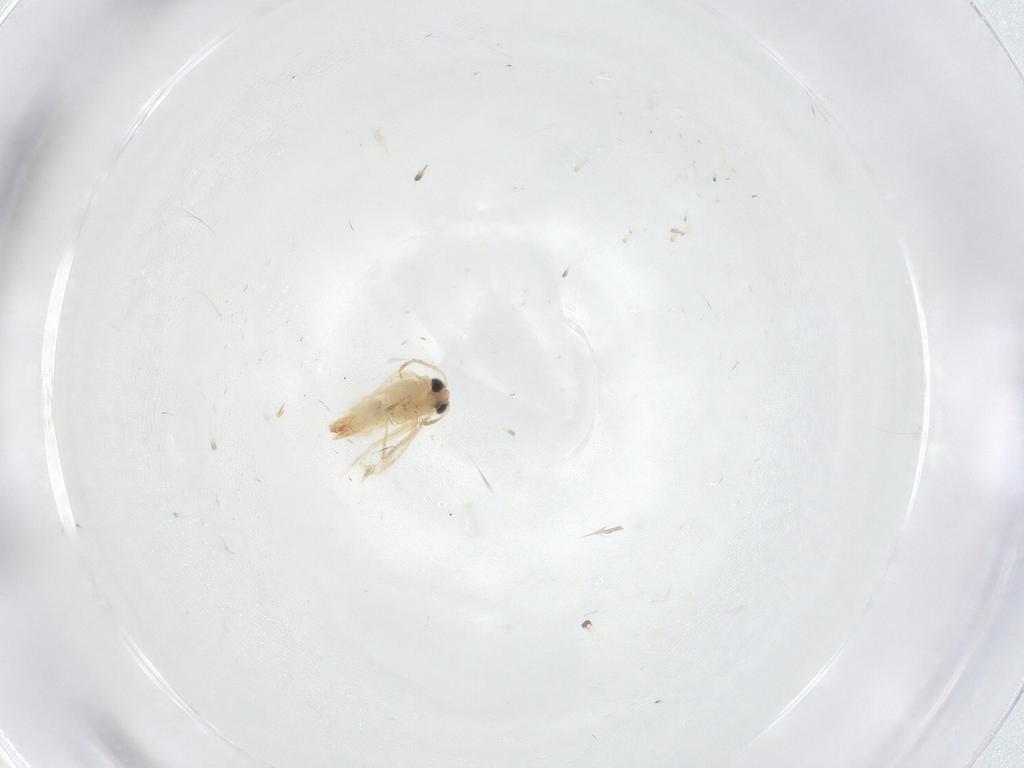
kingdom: Animalia
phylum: Arthropoda
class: Insecta
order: Lepidoptera
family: Crambidae
